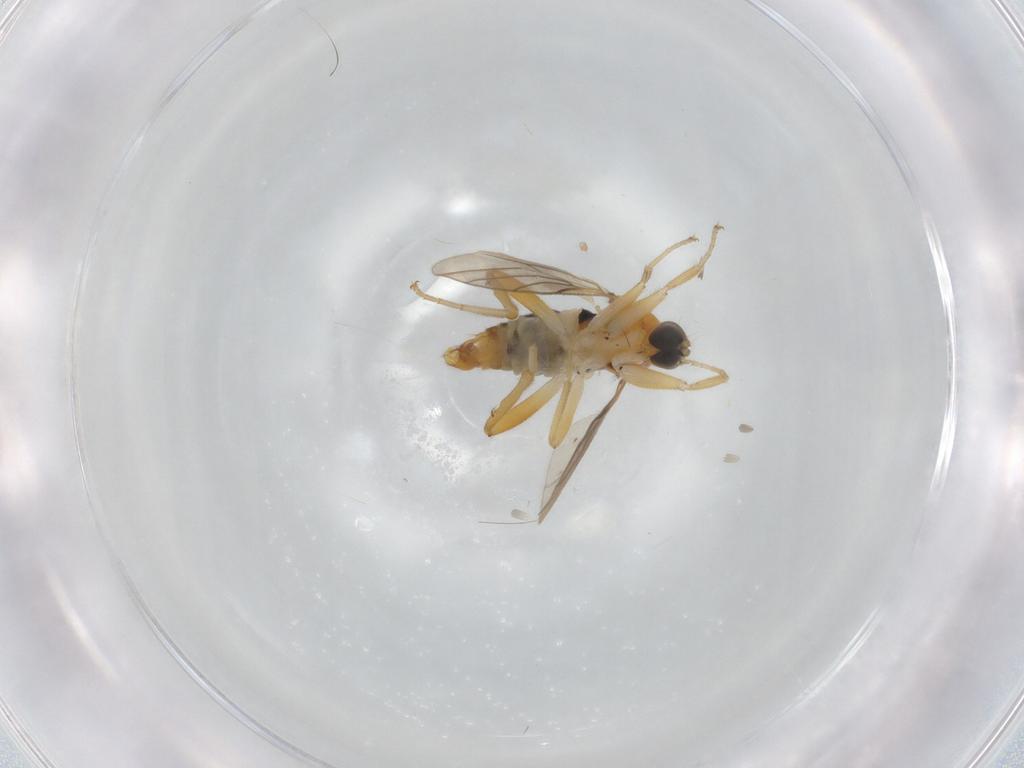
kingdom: Animalia
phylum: Arthropoda
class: Insecta
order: Diptera
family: Cecidomyiidae
